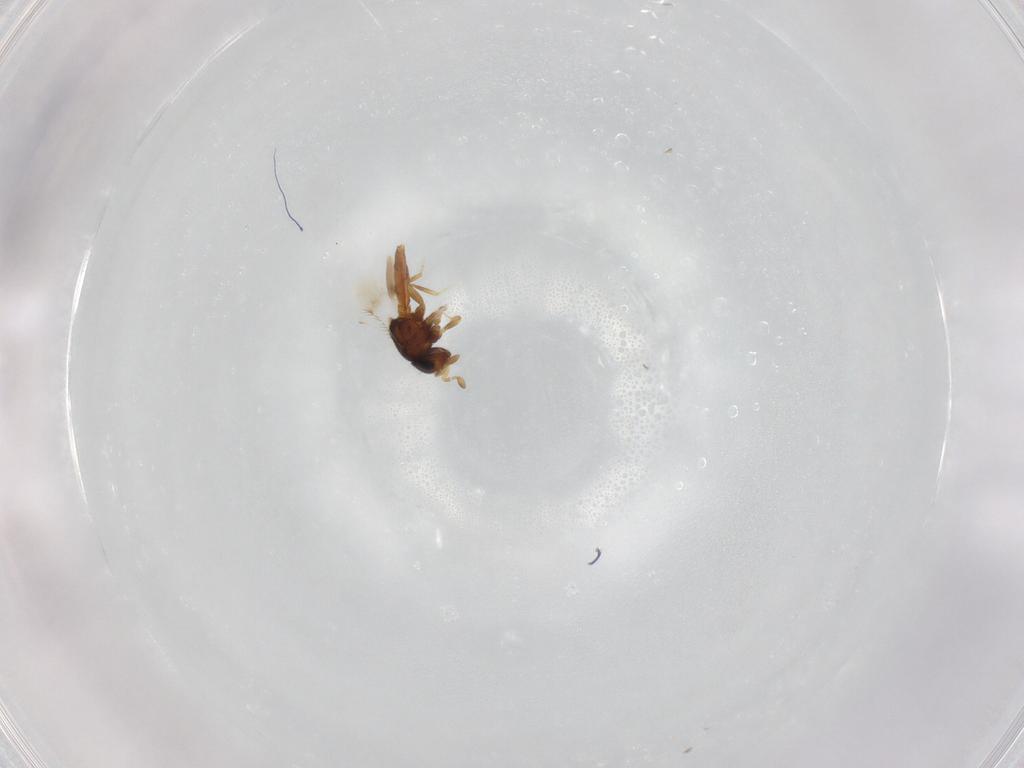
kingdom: Animalia
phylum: Arthropoda
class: Insecta
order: Hymenoptera
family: Scelionidae
